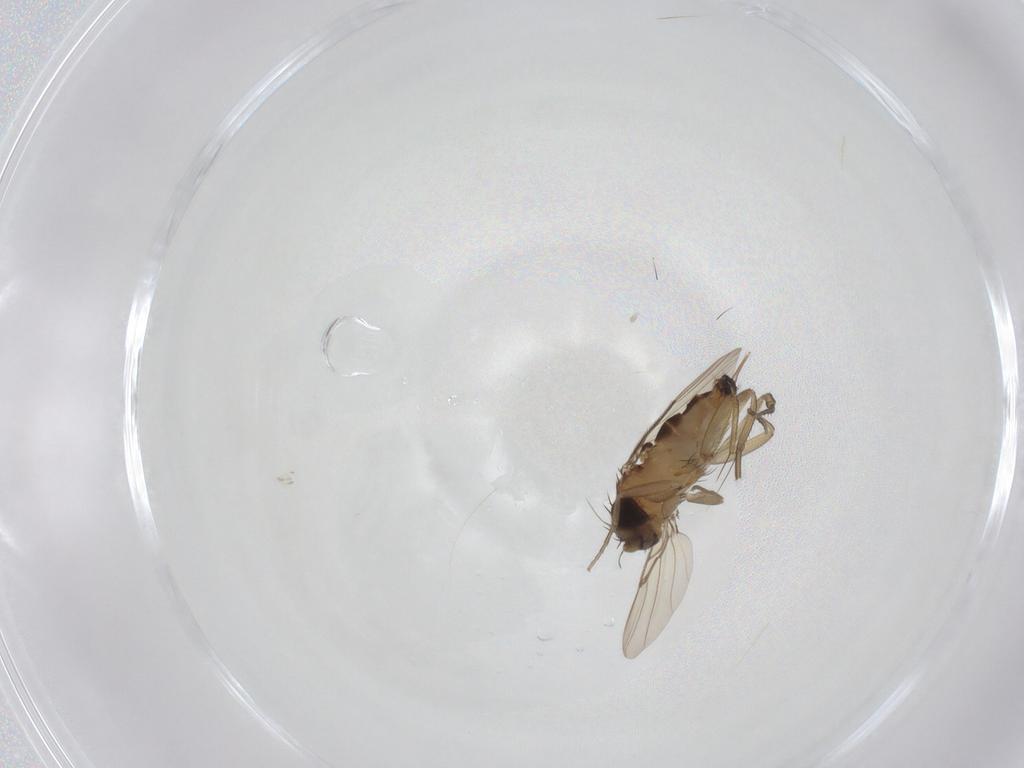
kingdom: Animalia
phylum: Arthropoda
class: Insecta
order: Diptera
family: Phoridae
